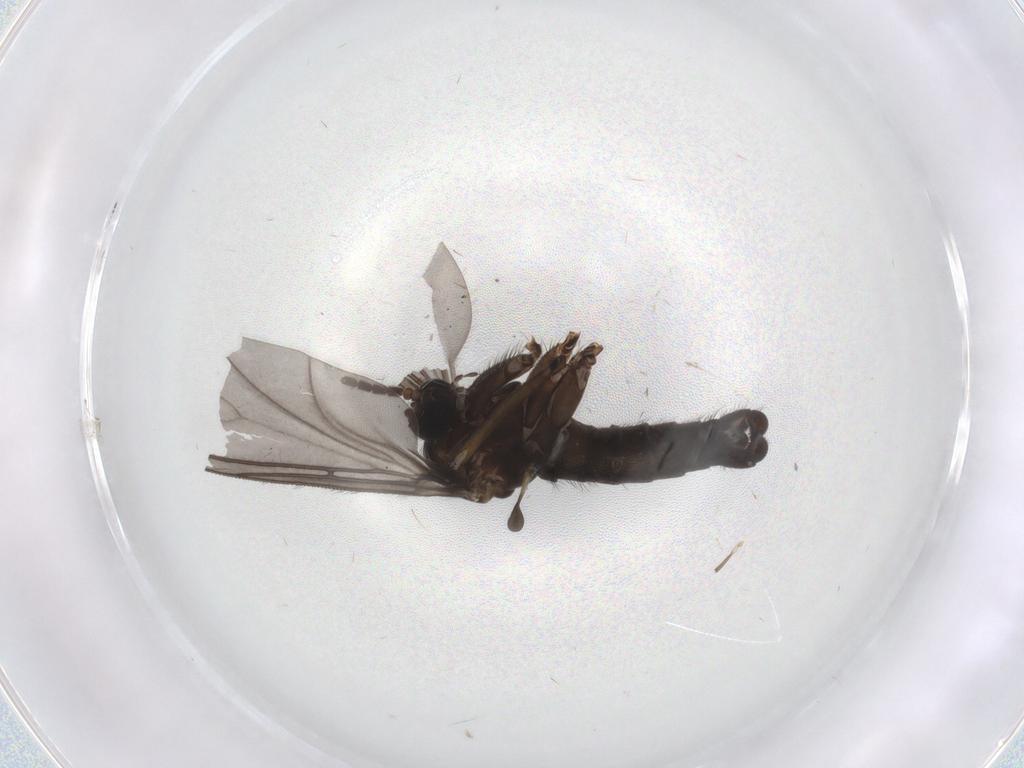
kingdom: Animalia
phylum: Arthropoda
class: Insecta
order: Diptera
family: Sciaridae
